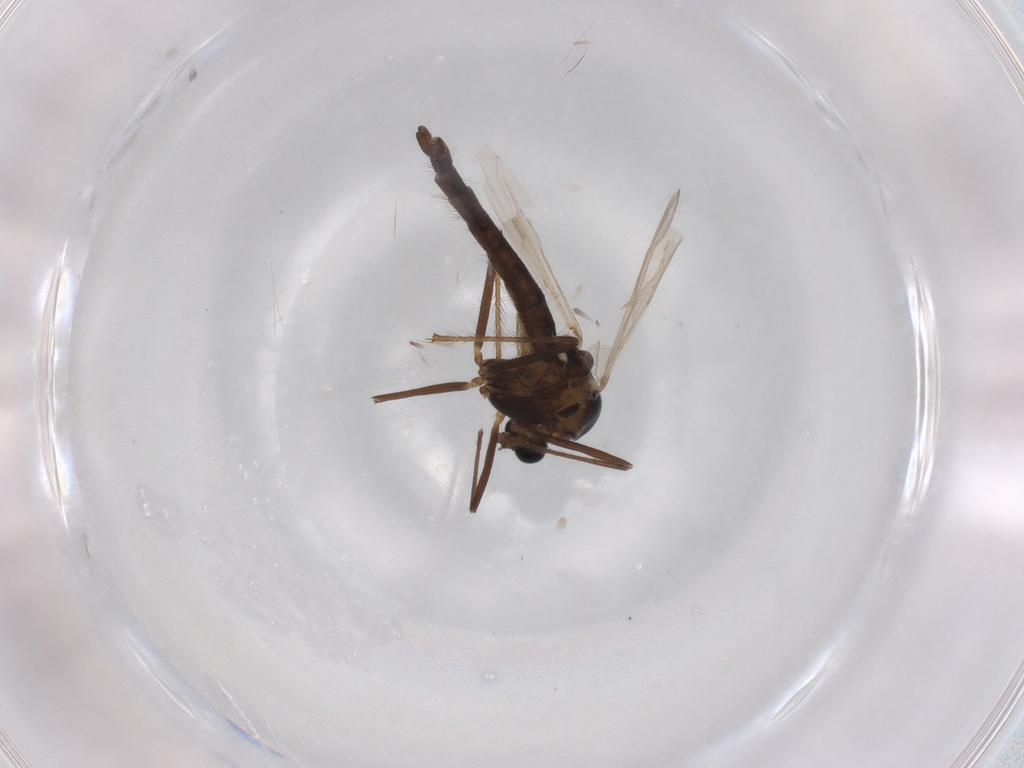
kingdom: Animalia
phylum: Arthropoda
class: Insecta
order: Diptera
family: Chironomidae
